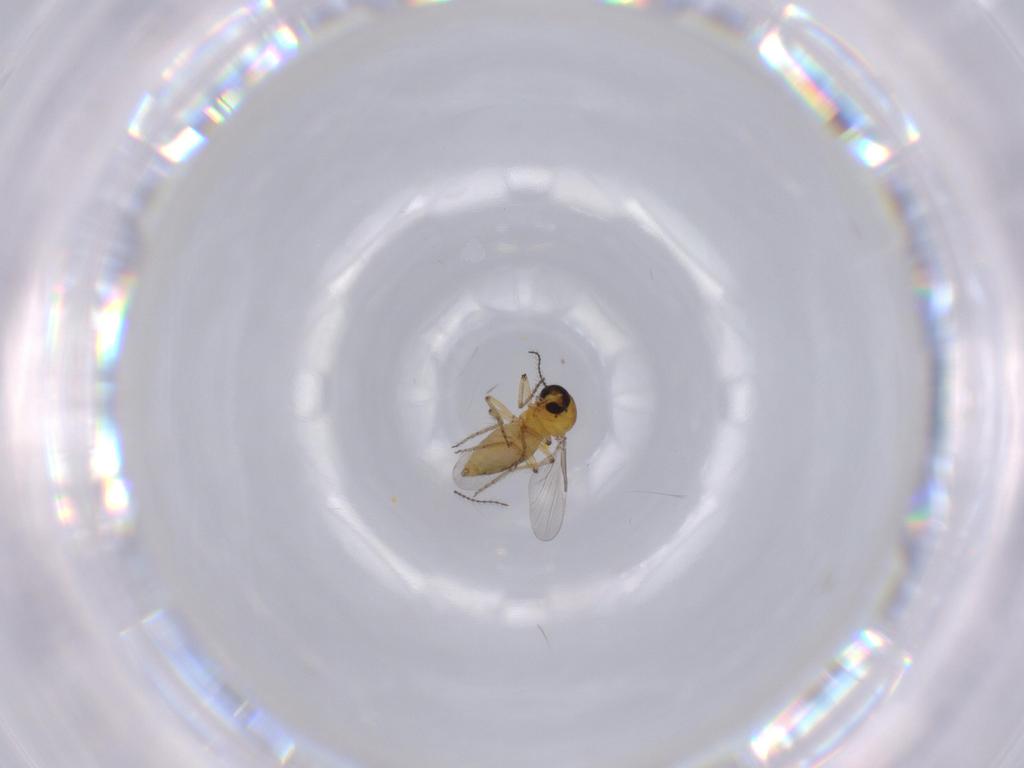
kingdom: Animalia
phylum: Arthropoda
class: Insecta
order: Diptera
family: Ceratopogonidae
